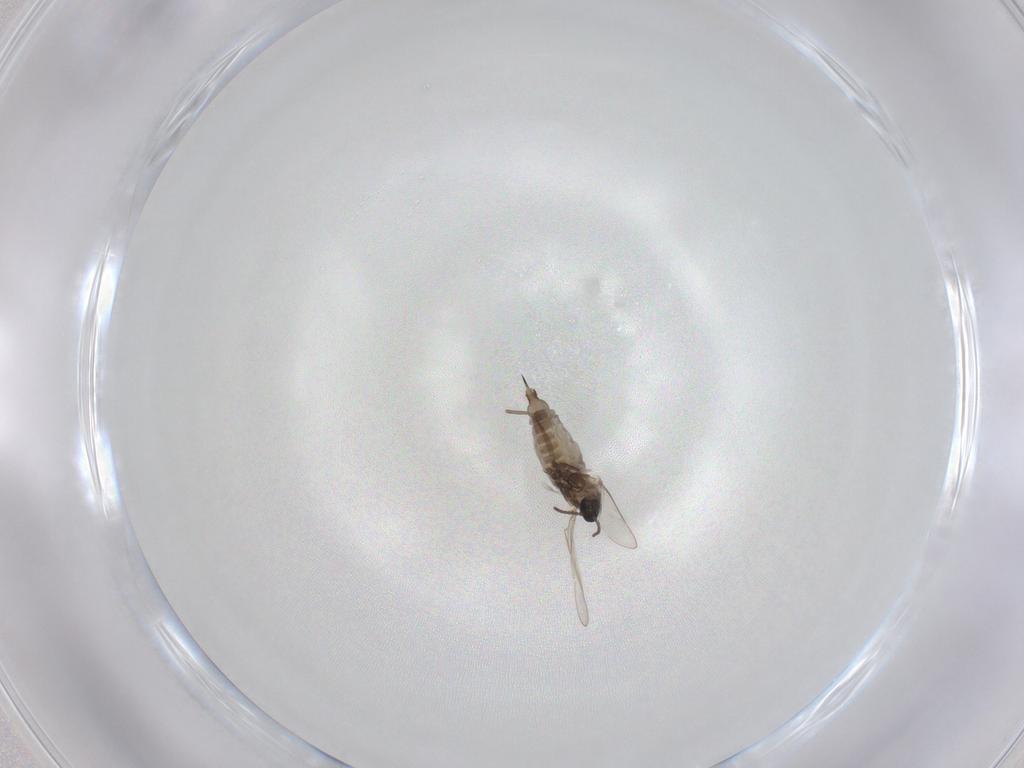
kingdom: Animalia
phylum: Arthropoda
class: Insecta
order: Diptera
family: Cecidomyiidae
